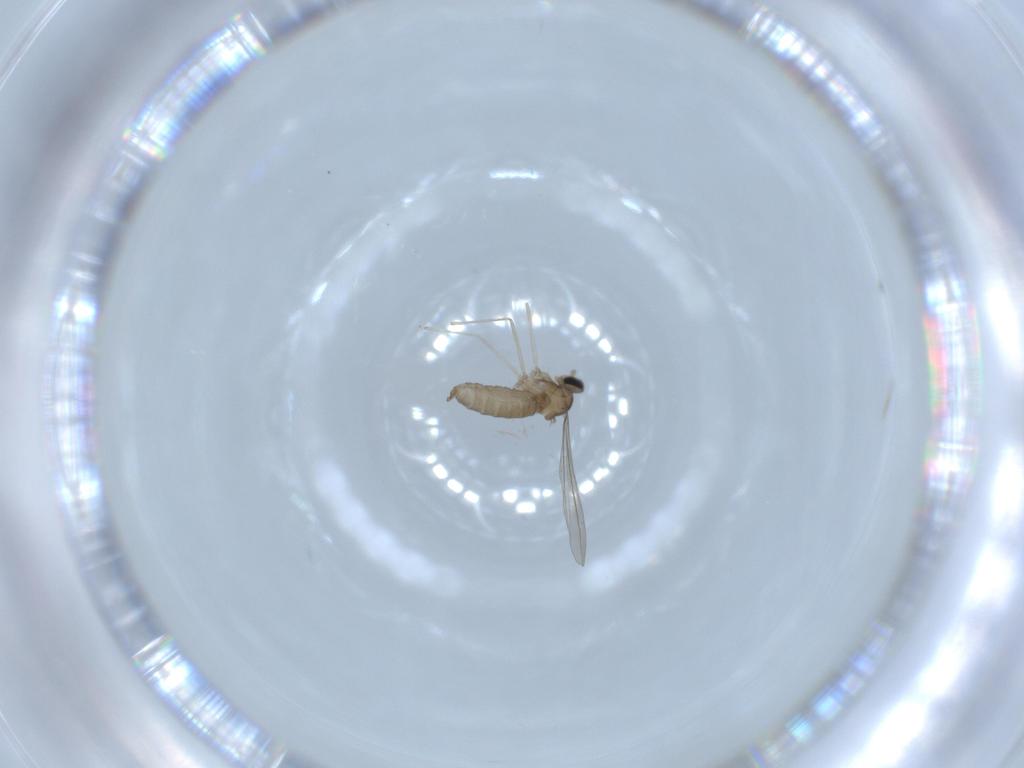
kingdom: Animalia
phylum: Arthropoda
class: Insecta
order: Diptera
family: Cecidomyiidae
